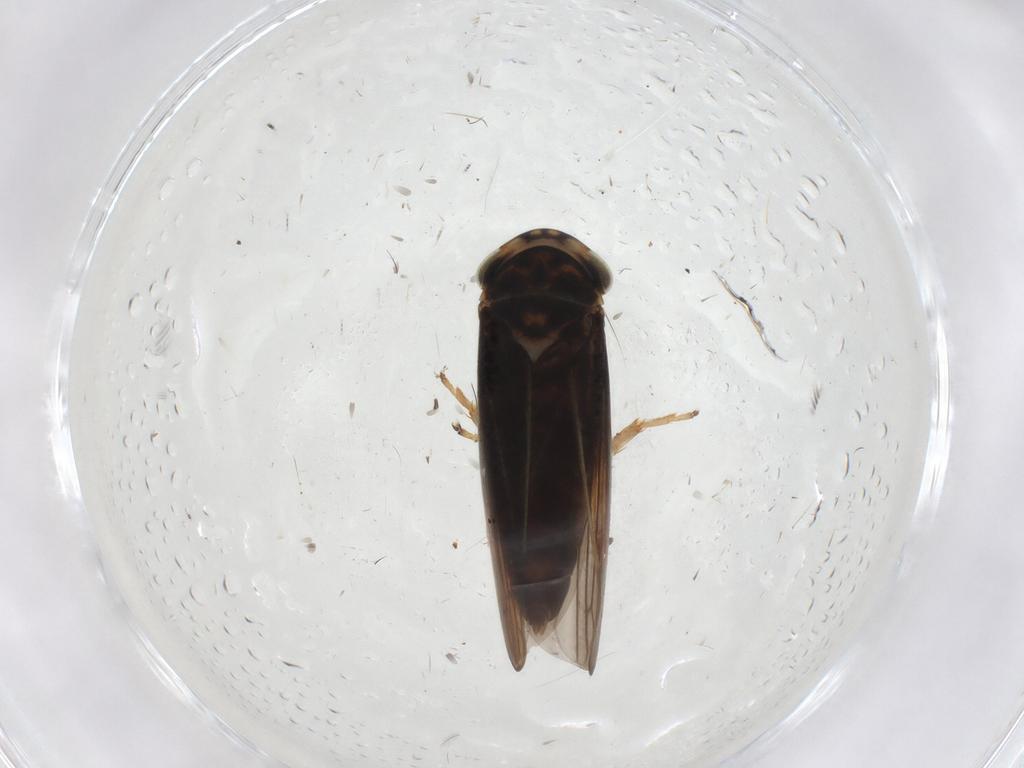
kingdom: Animalia
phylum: Arthropoda
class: Insecta
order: Hemiptera
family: Cicadellidae
